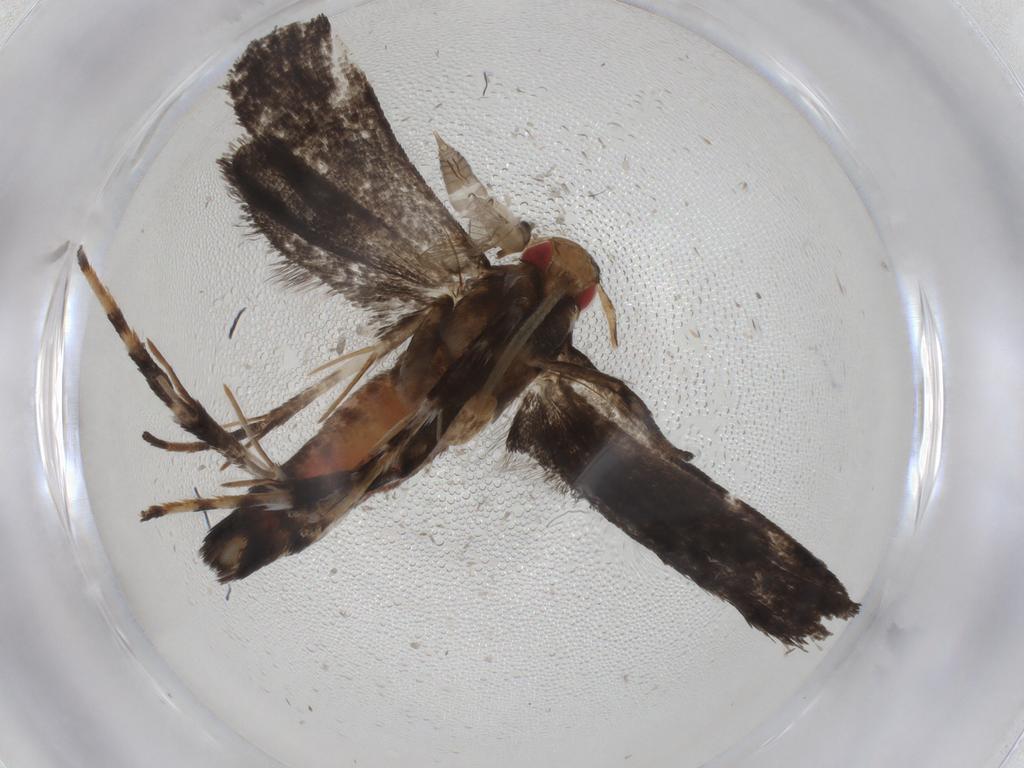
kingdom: Animalia
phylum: Arthropoda
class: Insecta
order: Lepidoptera
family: Gelechiidae
